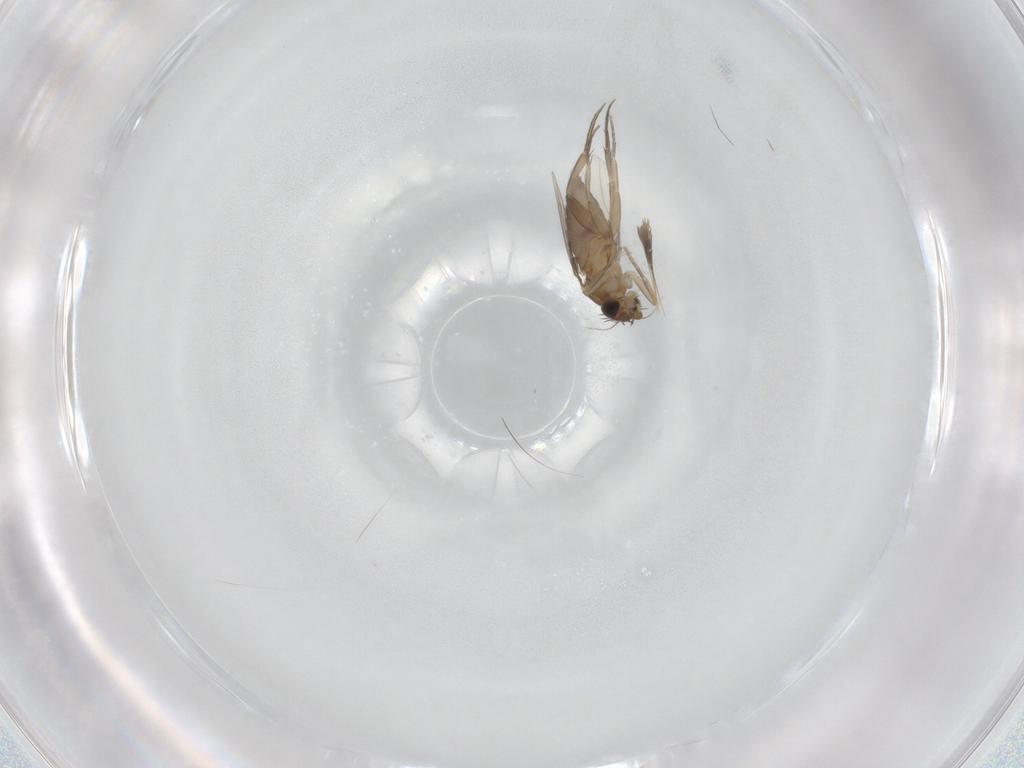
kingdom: Animalia
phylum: Arthropoda
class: Insecta
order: Diptera
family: Phoridae
